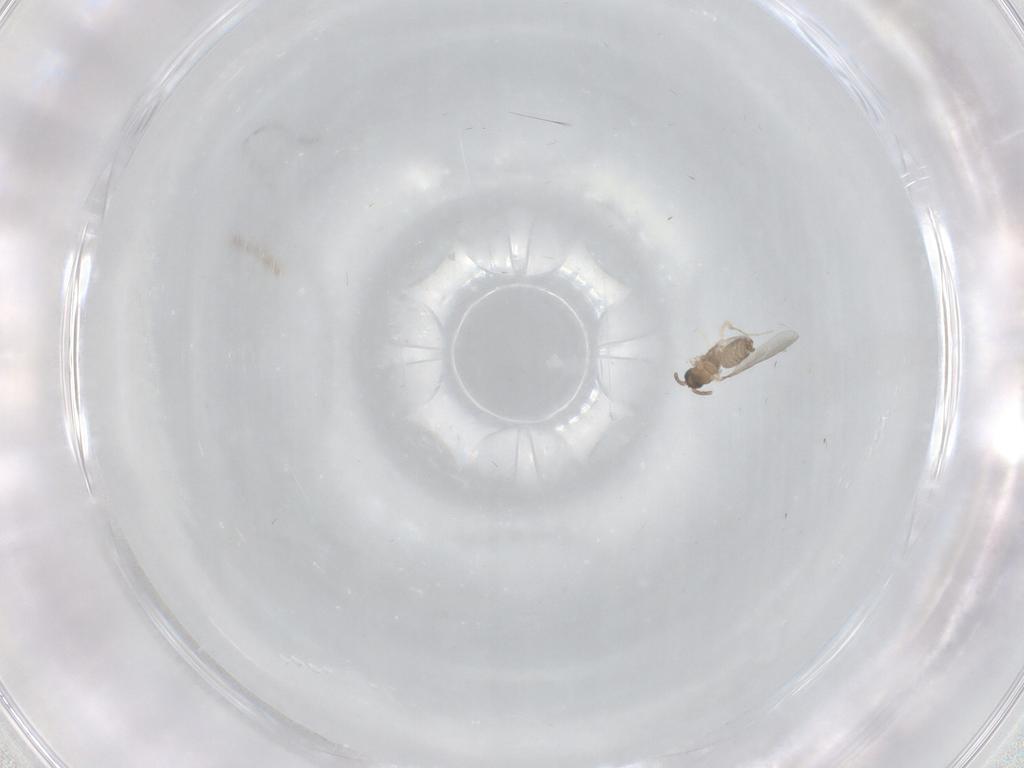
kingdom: Animalia
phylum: Arthropoda
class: Insecta
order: Diptera
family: Cecidomyiidae
